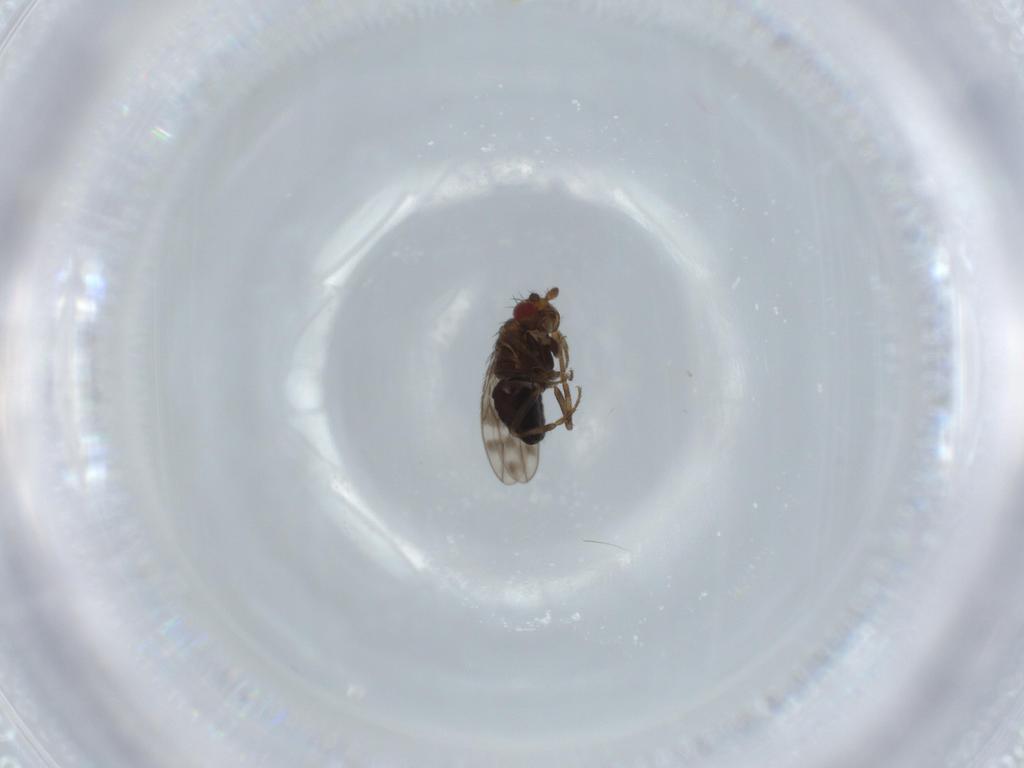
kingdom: Animalia
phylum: Arthropoda
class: Insecta
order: Diptera
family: Sphaeroceridae
